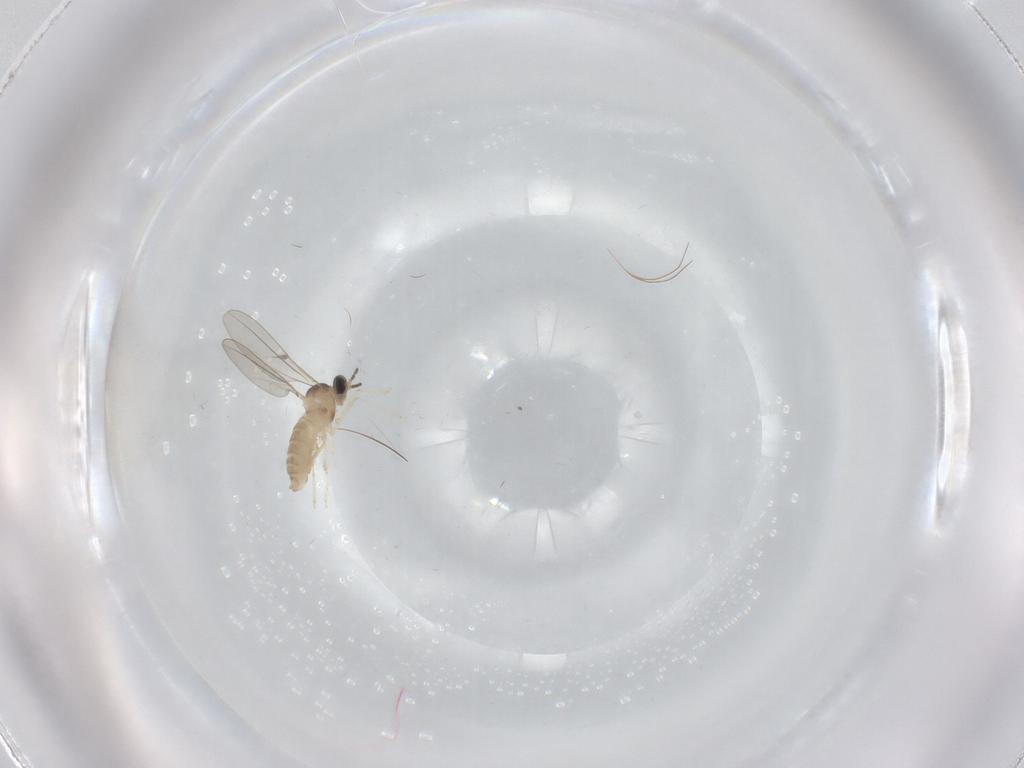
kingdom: Animalia
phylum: Arthropoda
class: Insecta
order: Diptera
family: Cecidomyiidae
